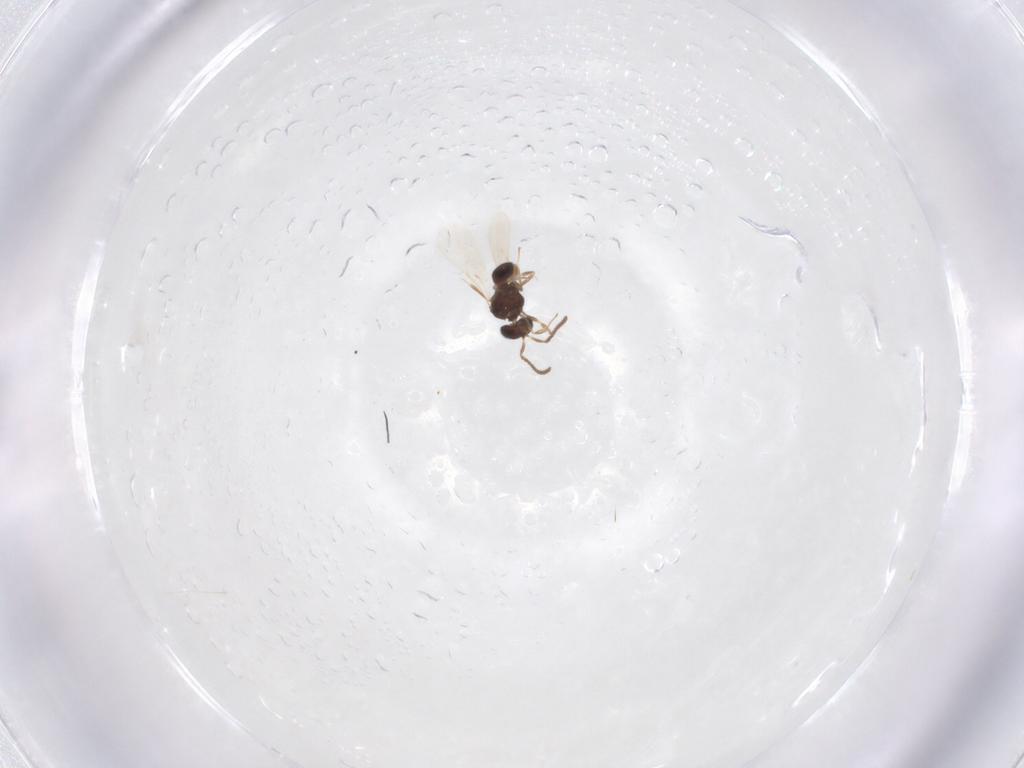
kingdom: Animalia
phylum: Arthropoda
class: Insecta
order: Hymenoptera
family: Scelionidae
